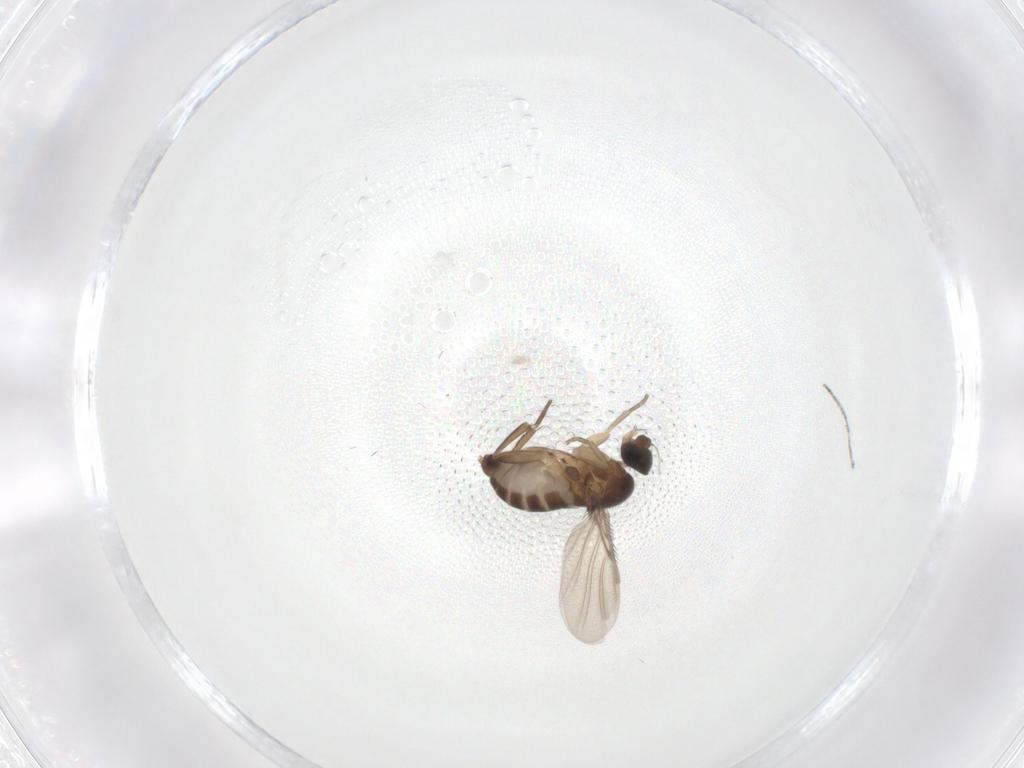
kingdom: Animalia
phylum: Arthropoda
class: Insecta
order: Diptera
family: Phoridae
